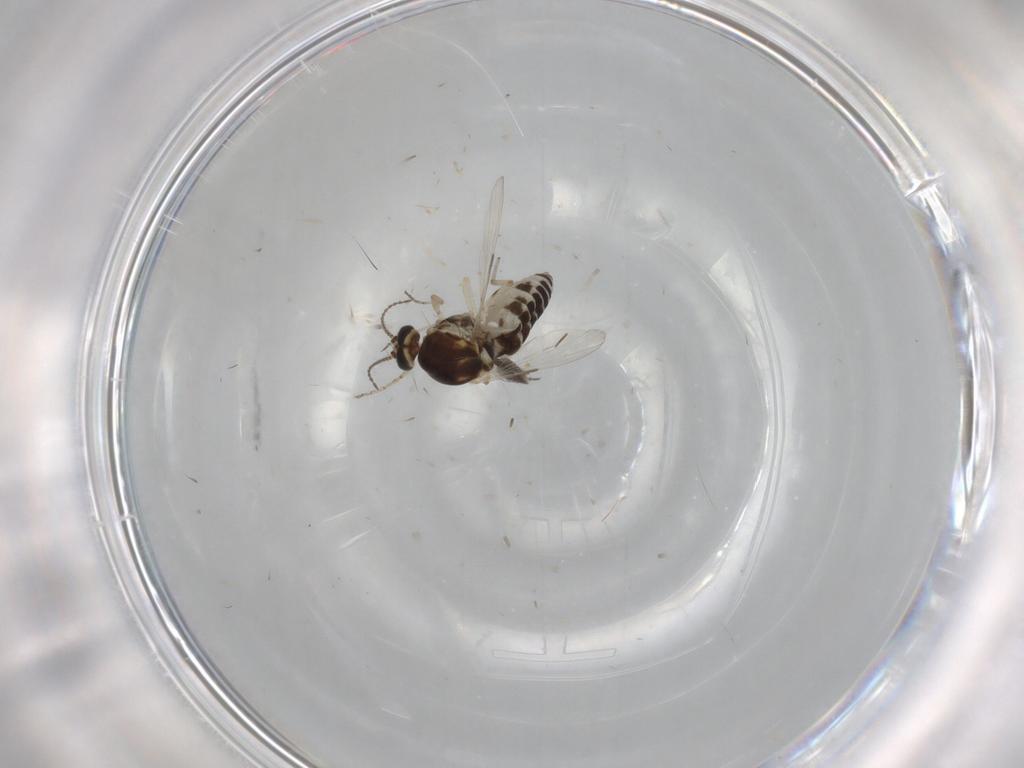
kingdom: Animalia
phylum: Arthropoda
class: Insecta
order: Diptera
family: Ceratopogonidae
